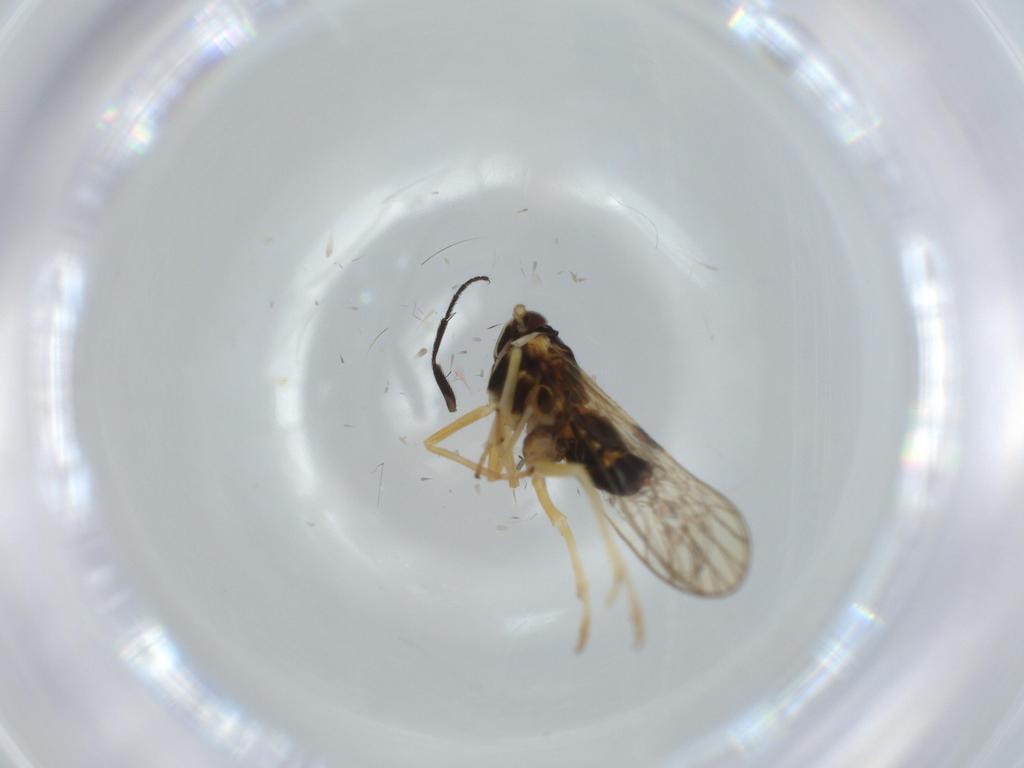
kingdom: Animalia
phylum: Arthropoda
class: Insecta
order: Hemiptera
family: Cicadellidae
